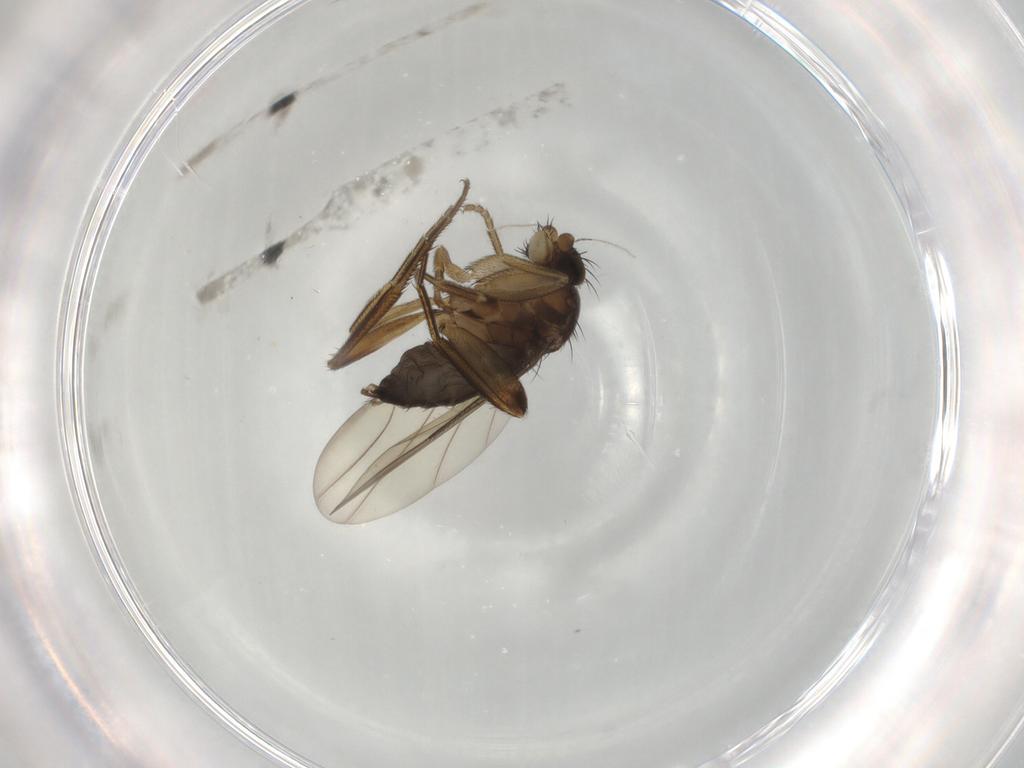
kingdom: Animalia
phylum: Arthropoda
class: Insecta
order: Diptera
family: Phoridae
